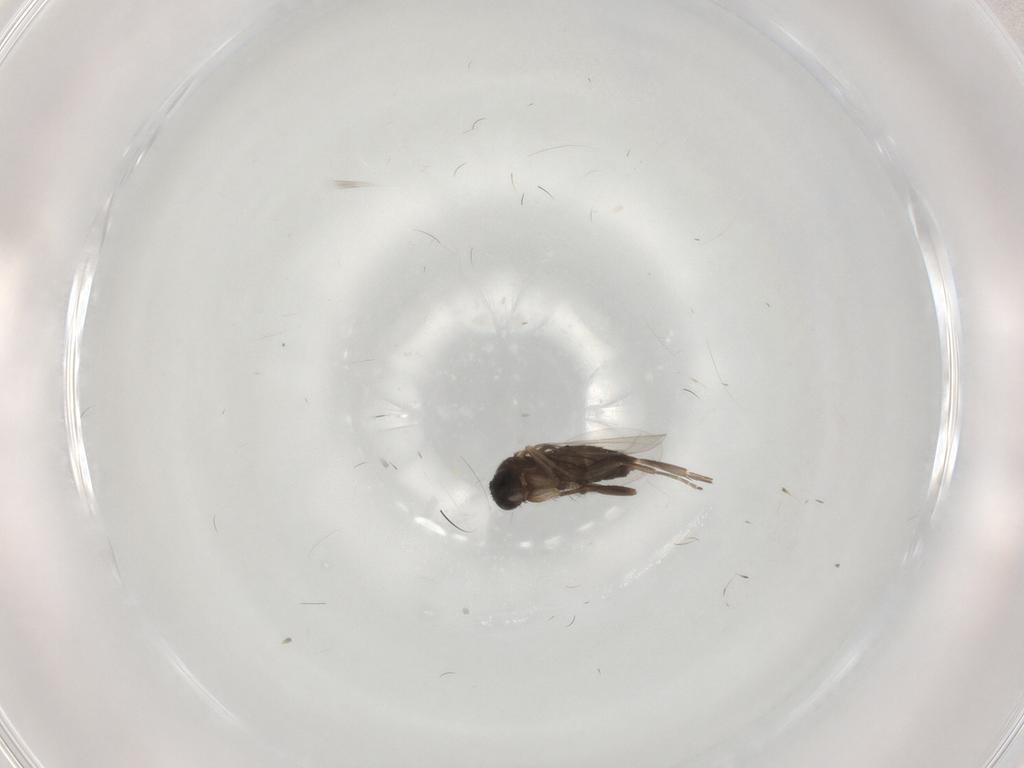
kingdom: Animalia
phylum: Arthropoda
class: Insecta
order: Diptera
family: Hybotidae
